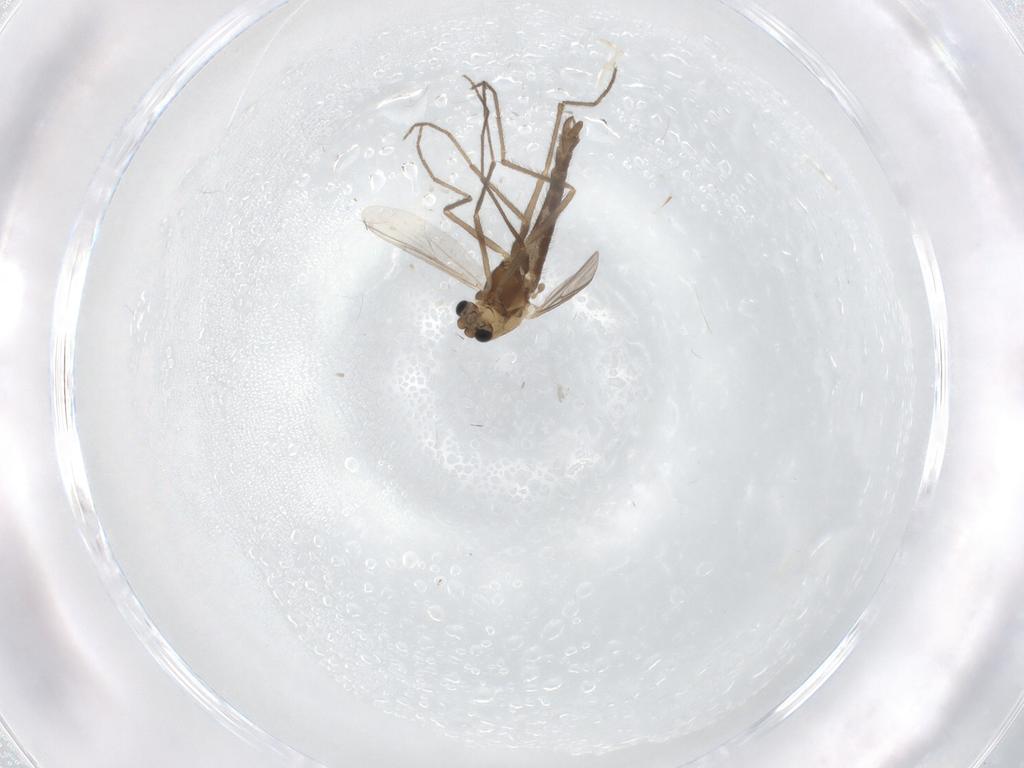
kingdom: Animalia
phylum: Arthropoda
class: Insecta
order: Diptera
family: Chironomidae
